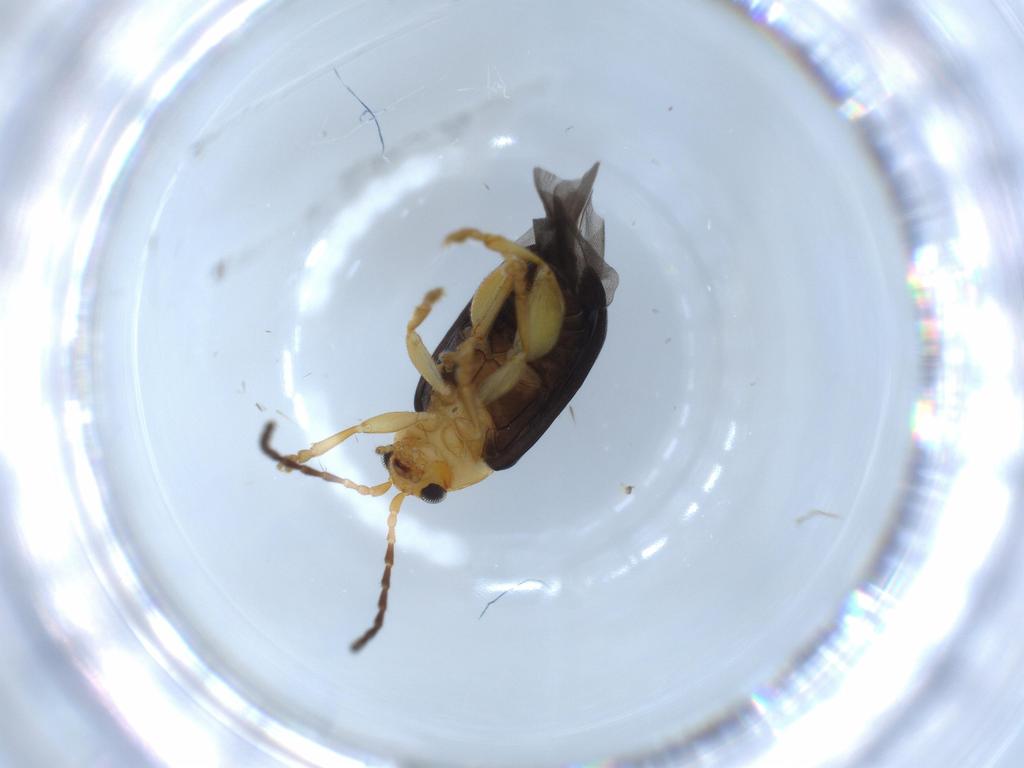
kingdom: Animalia
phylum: Arthropoda
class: Insecta
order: Coleoptera
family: Chrysomelidae
